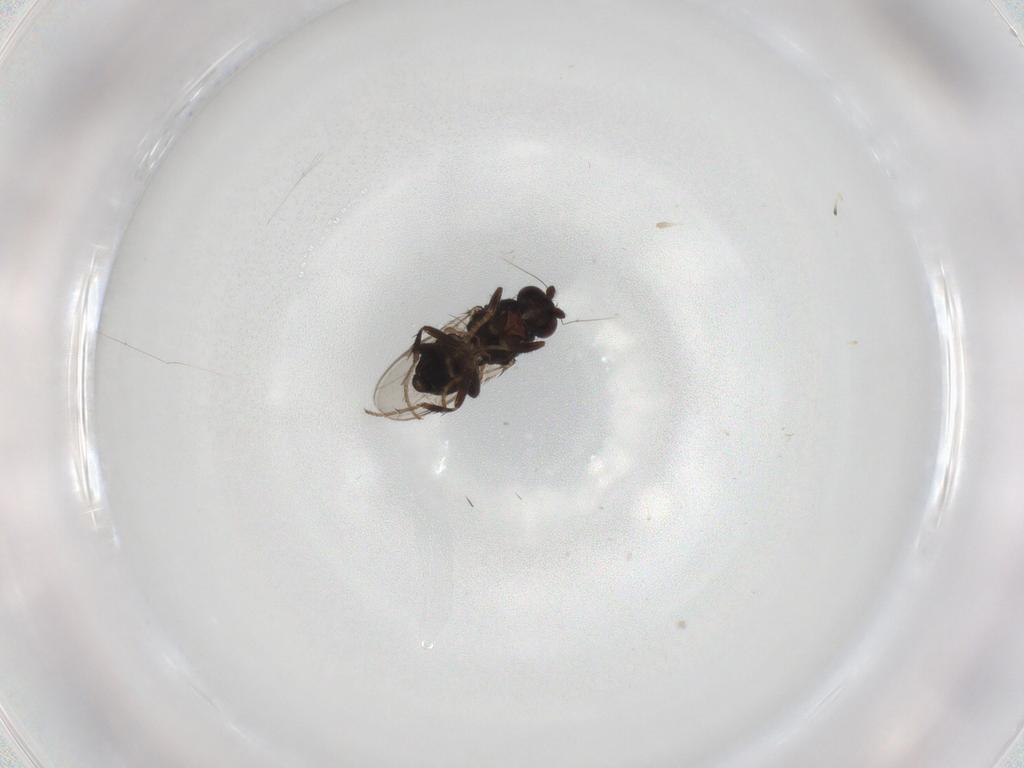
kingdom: Animalia
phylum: Arthropoda
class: Insecta
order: Diptera
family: Sphaeroceridae
